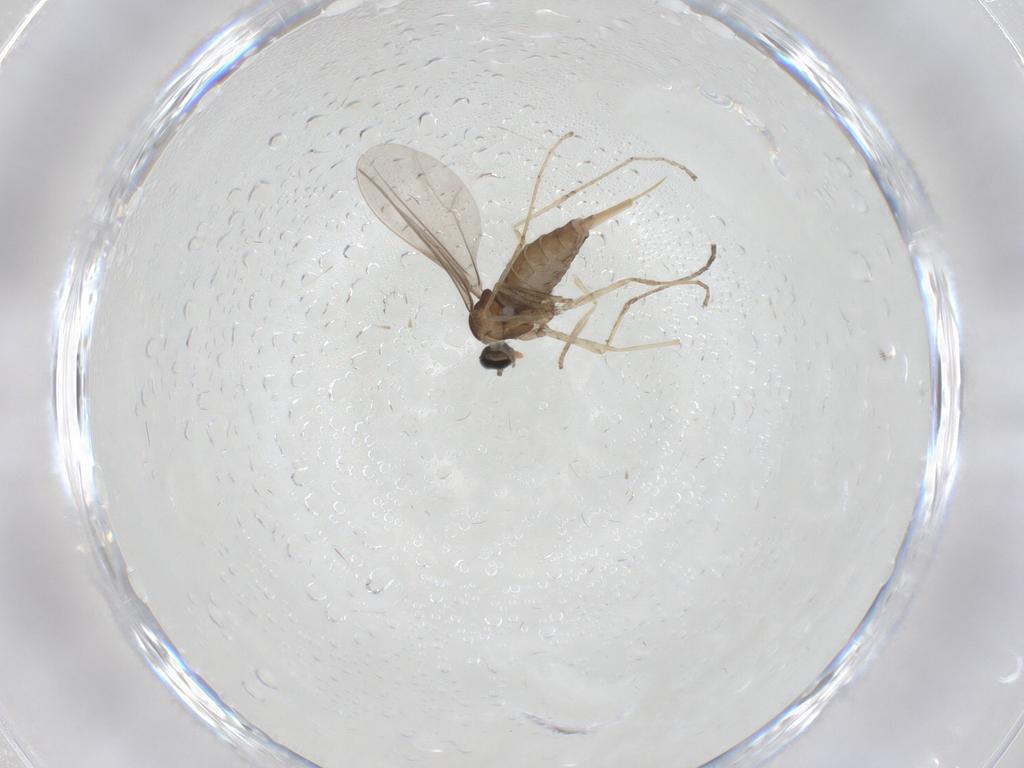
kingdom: Animalia
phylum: Arthropoda
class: Insecta
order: Diptera
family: Cecidomyiidae
